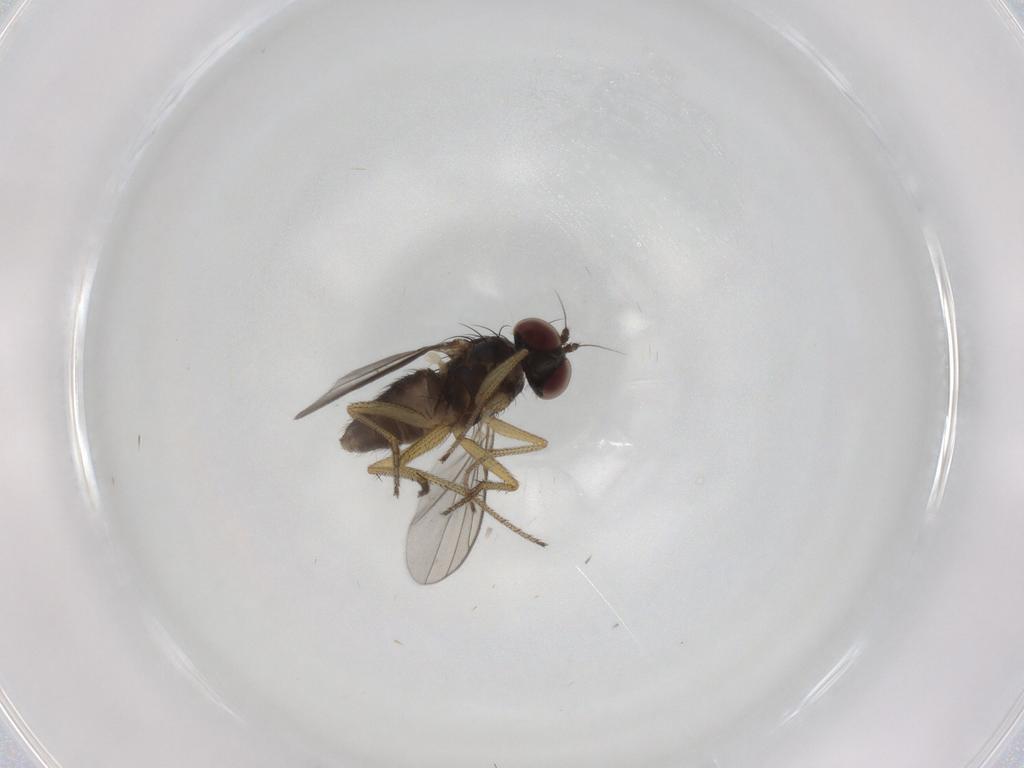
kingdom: Animalia
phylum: Arthropoda
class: Insecta
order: Diptera
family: Dolichopodidae
